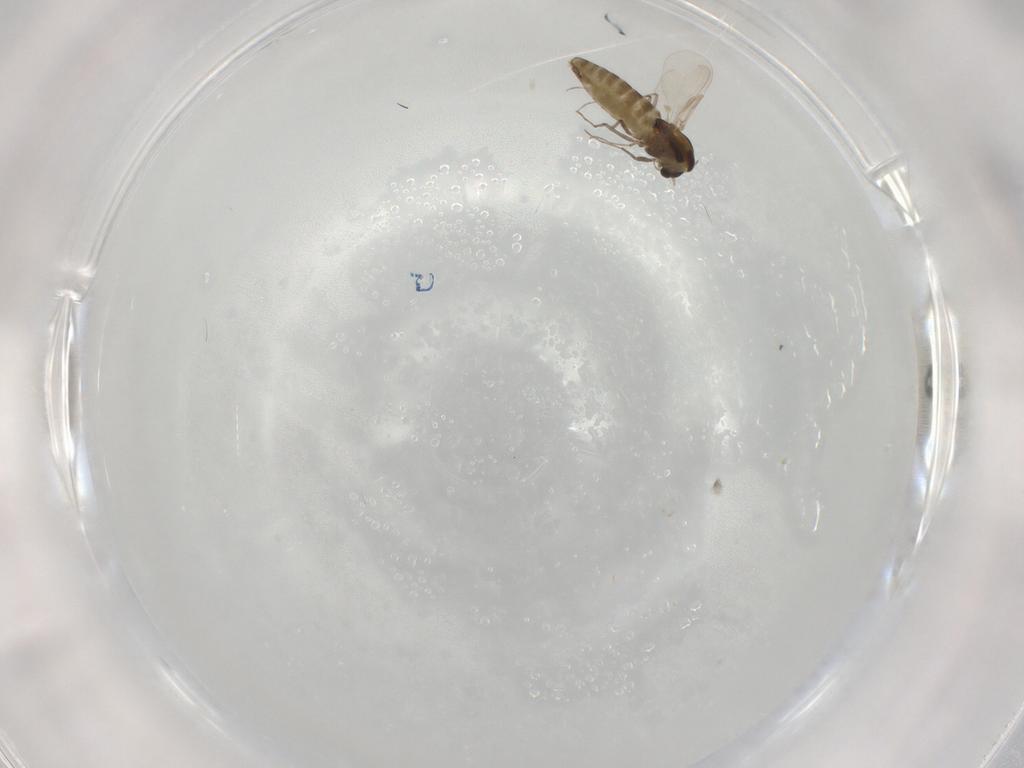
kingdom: Animalia
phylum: Arthropoda
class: Insecta
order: Diptera
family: Chironomidae
